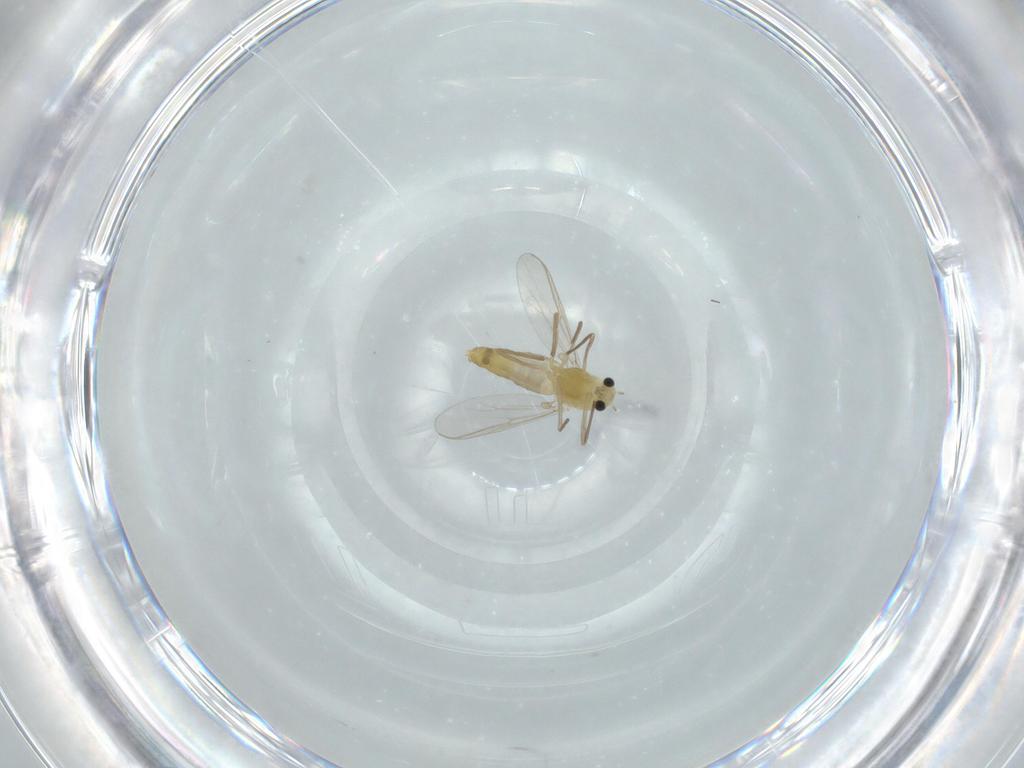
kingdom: Animalia
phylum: Arthropoda
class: Insecta
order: Diptera
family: Chironomidae
